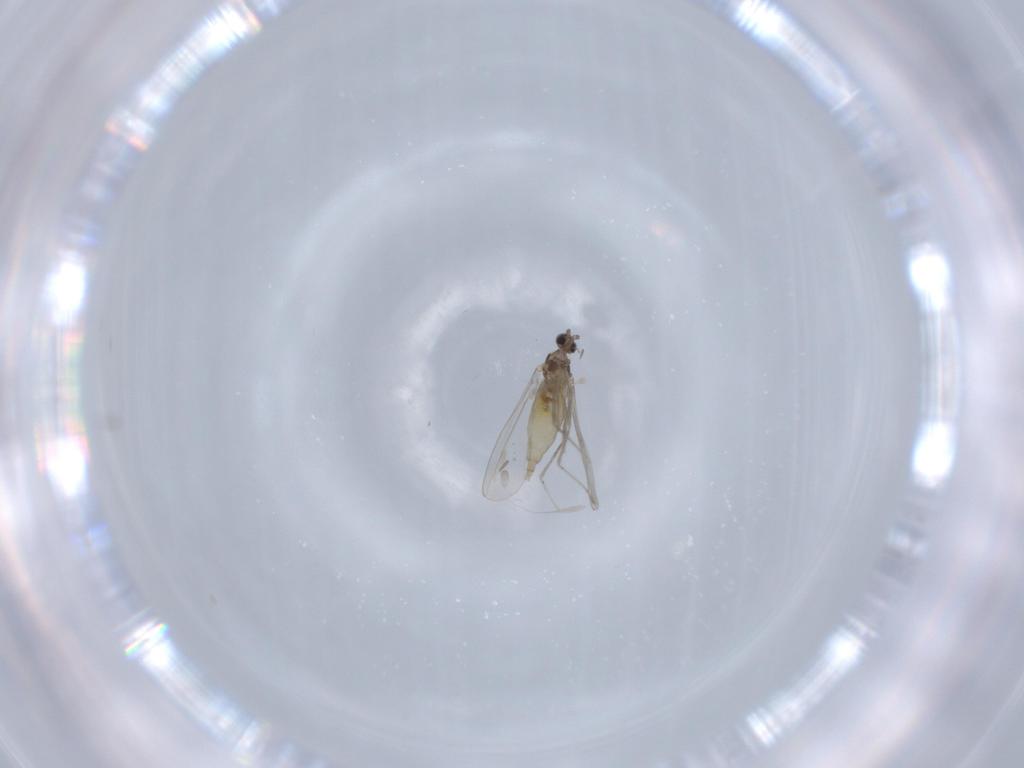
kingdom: Animalia
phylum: Arthropoda
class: Insecta
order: Diptera
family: Cecidomyiidae
